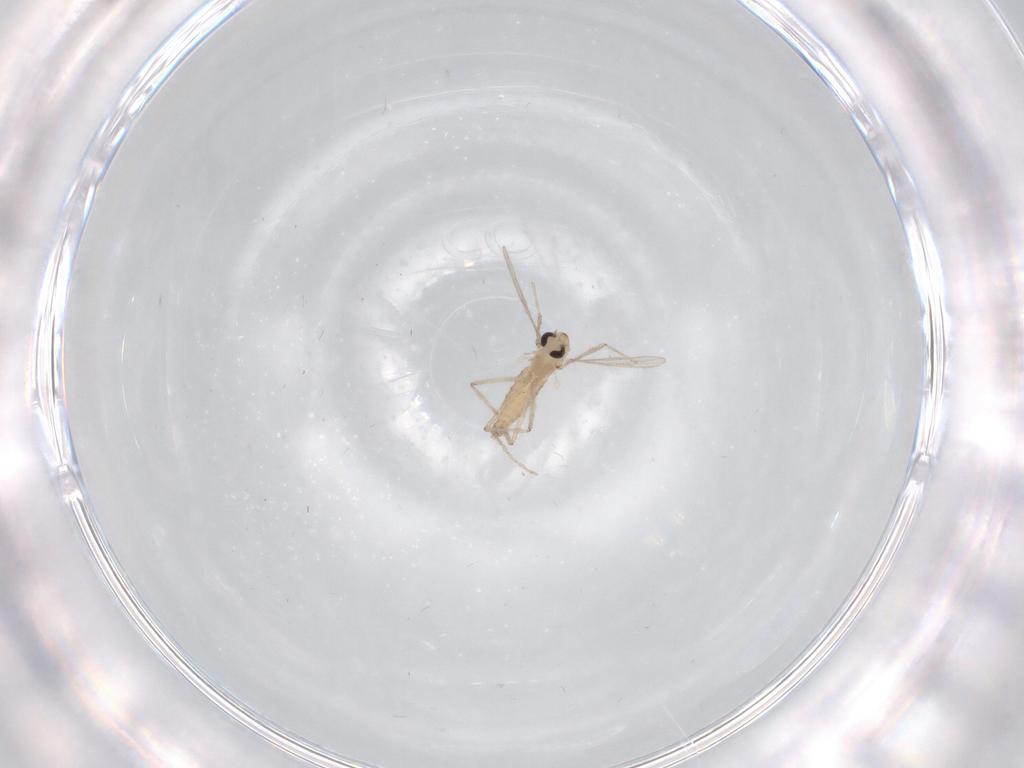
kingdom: Animalia
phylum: Arthropoda
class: Insecta
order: Diptera
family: Chironomidae
